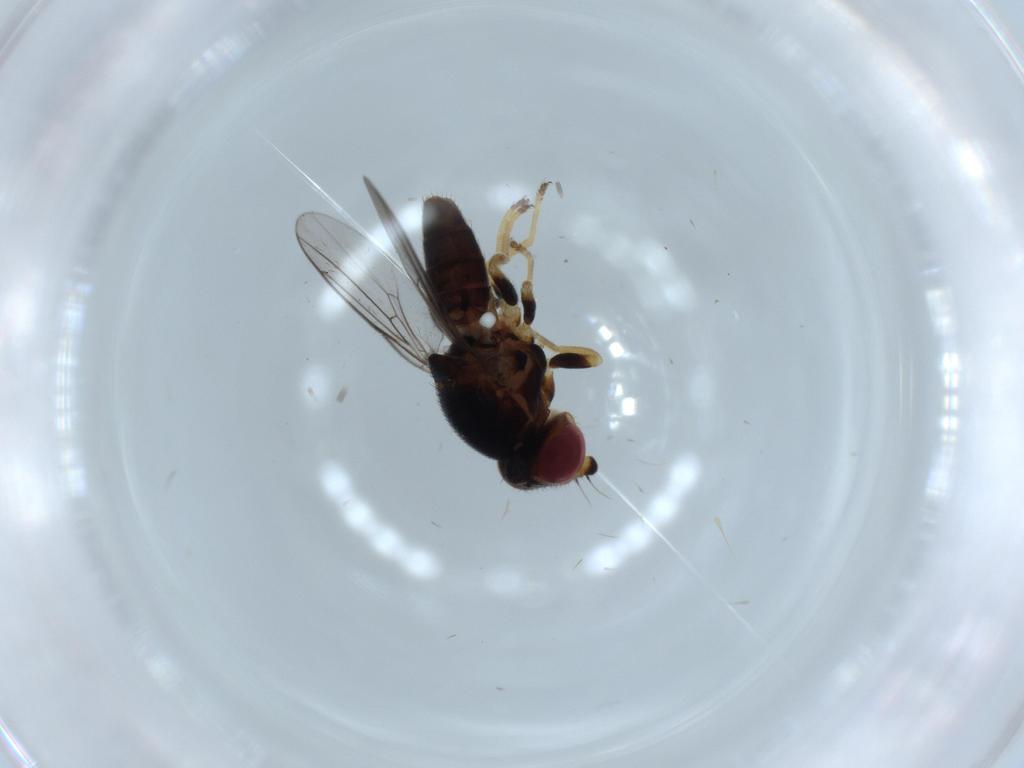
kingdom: Animalia
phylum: Arthropoda
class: Insecta
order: Diptera
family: Chloropidae
